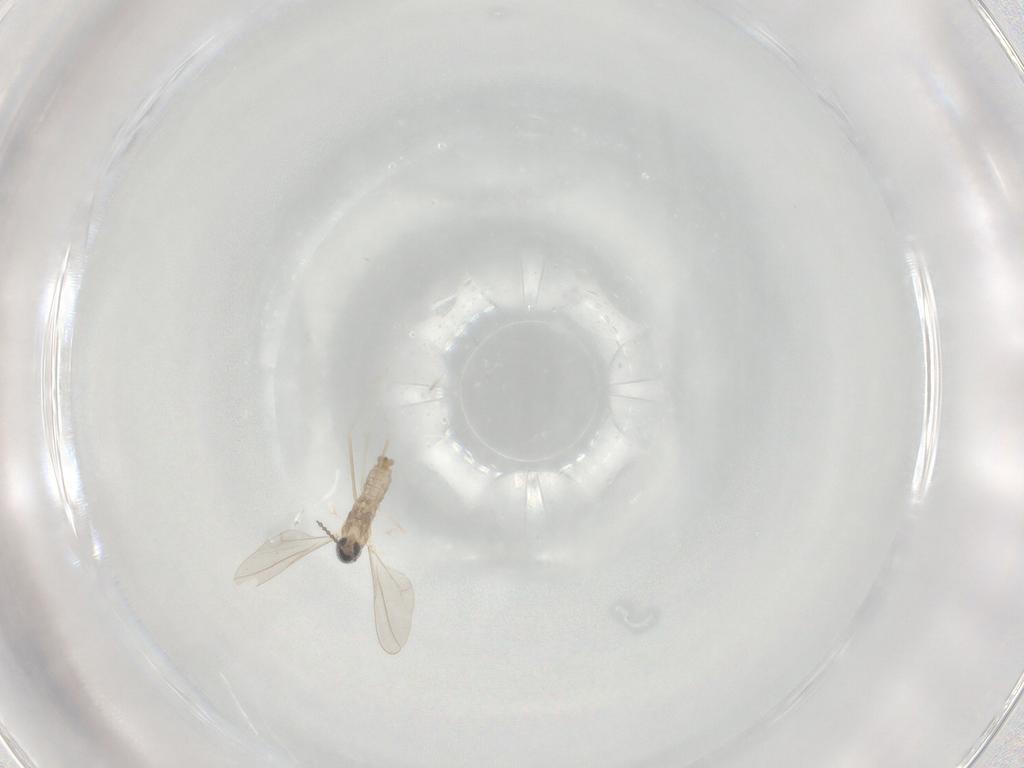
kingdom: Animalia
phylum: Arthropoda
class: Insecta
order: Diptera
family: Cecidomyiidae
